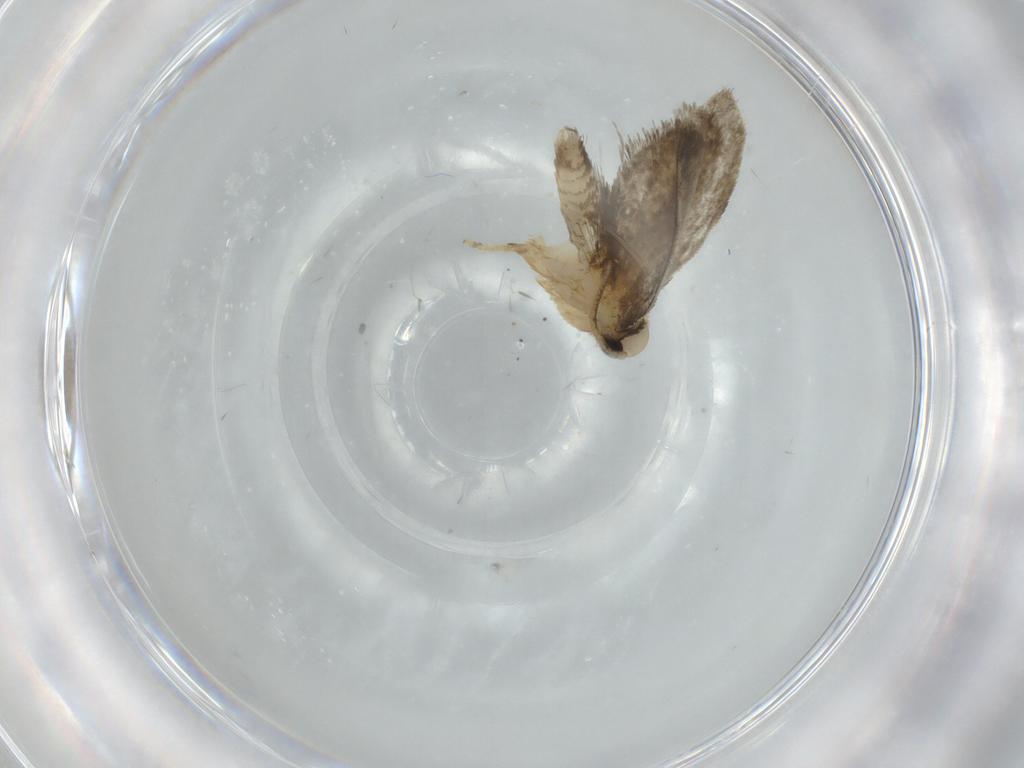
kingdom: Animalia
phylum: Arthropoda
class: Insecta
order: Lepidoptera
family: Psychidae
